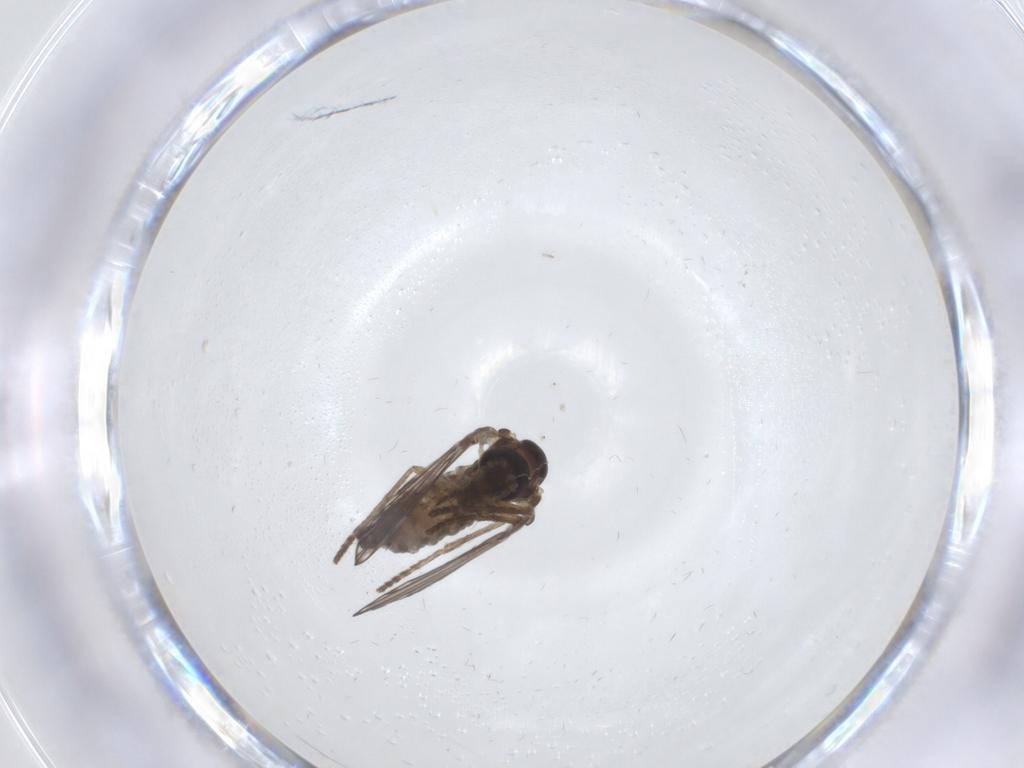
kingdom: Animalia
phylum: Arthropoda
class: Insecta
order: Diptera
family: Psychodidae
